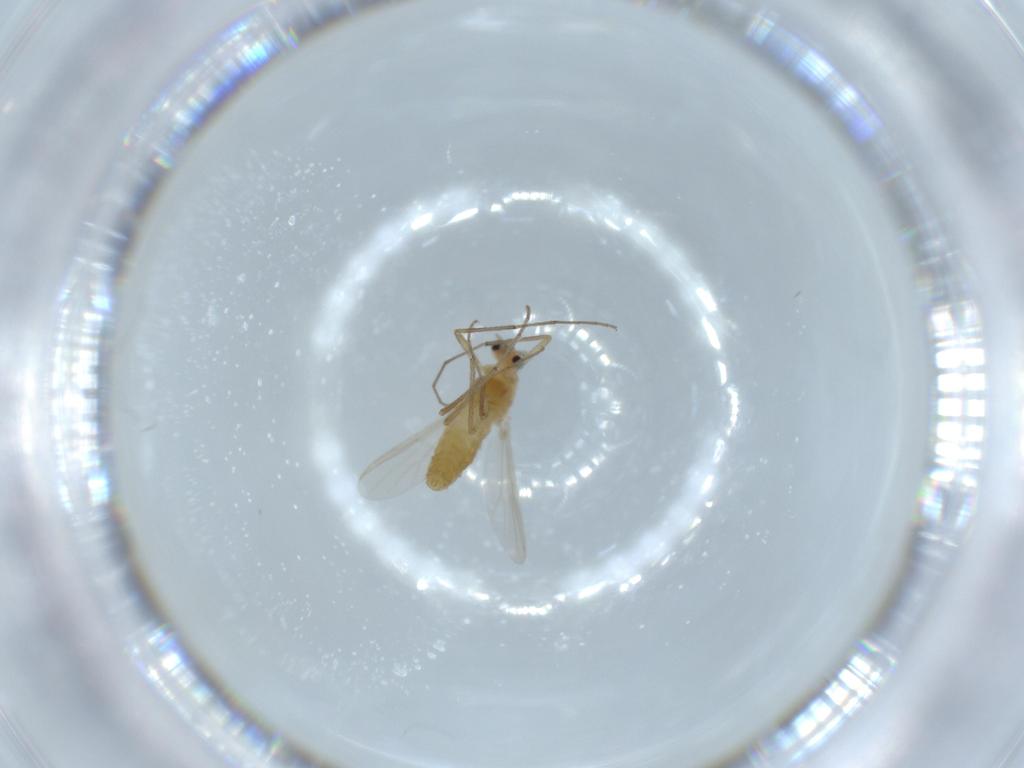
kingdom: Animalia
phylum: Arthropoda
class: Insecta
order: Diptera
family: Chironomidae
